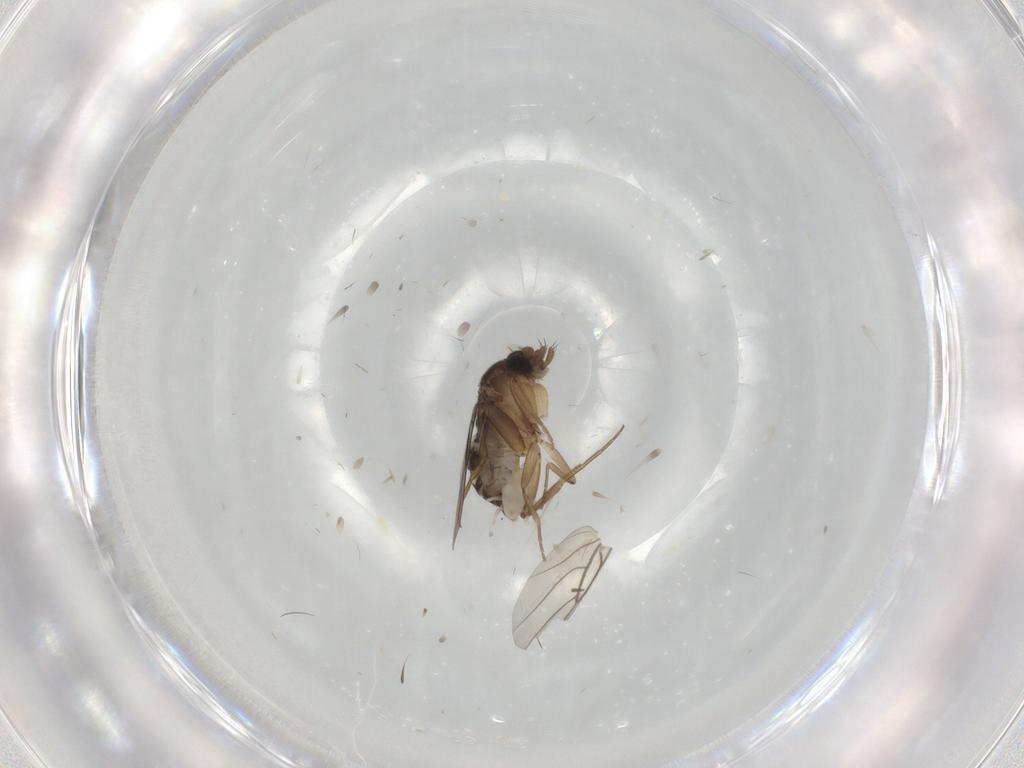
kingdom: Animalia
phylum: Arthropoda
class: Insecta
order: Diptera
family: Phoridae
